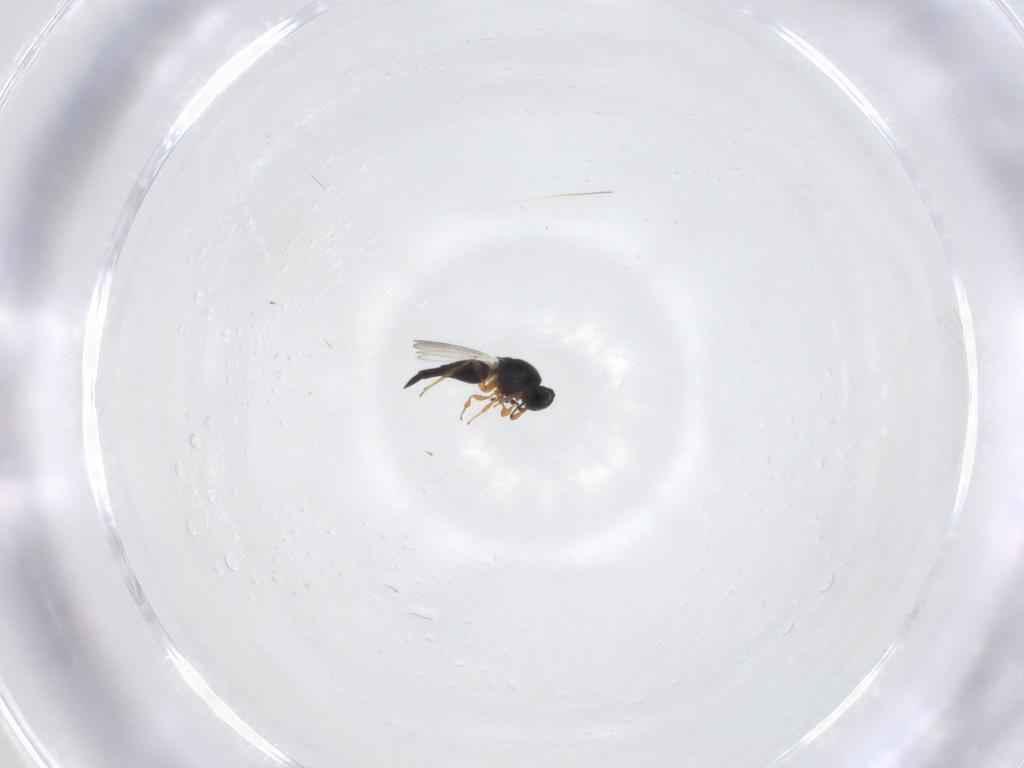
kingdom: Animalia
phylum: Arthropoda
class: Insecta
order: Hymenoptera
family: Platygastridae
